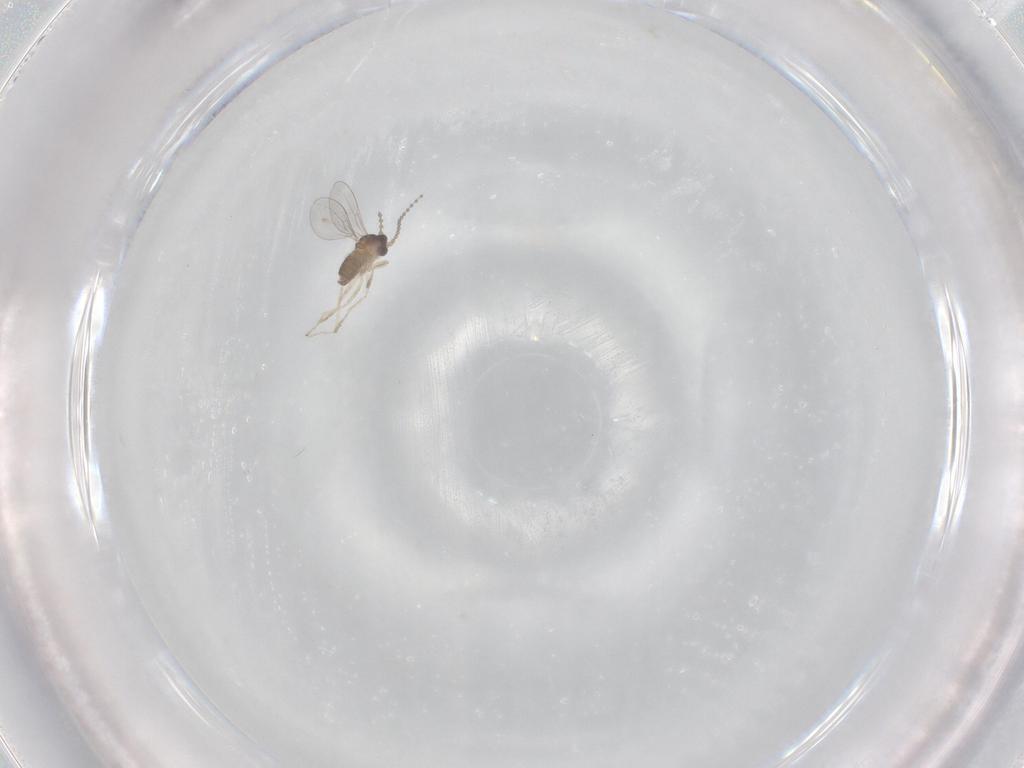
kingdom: Animalia
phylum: Arthropoda
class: Insecta
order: Diptera
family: Cecidomyiidae
